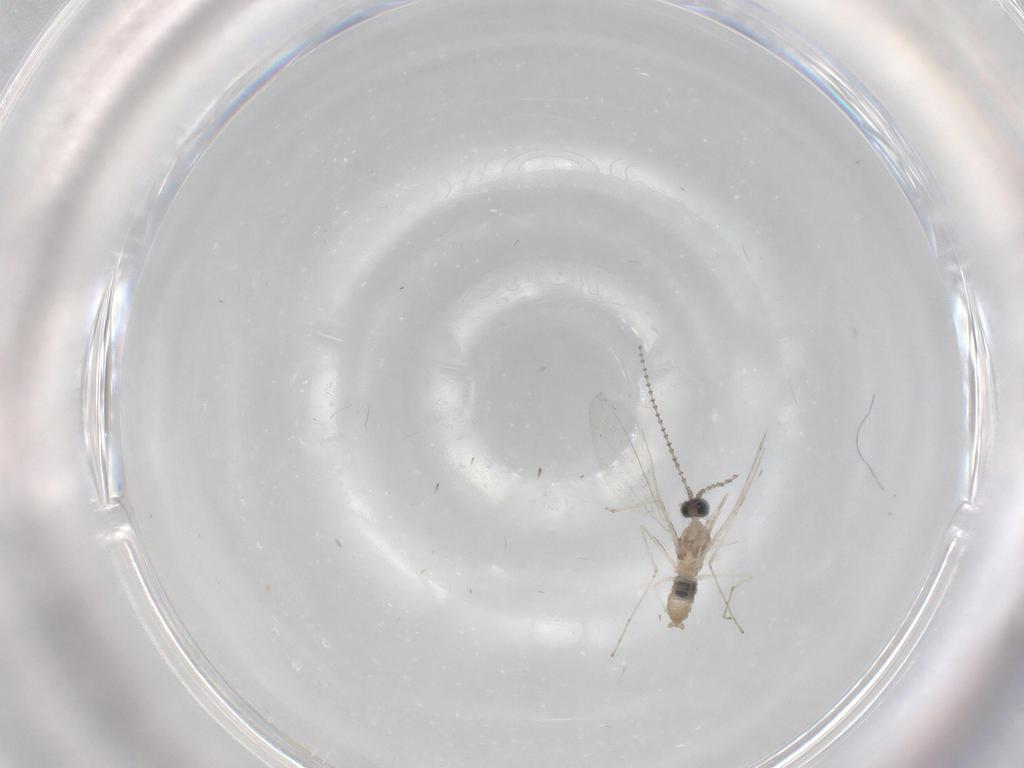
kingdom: Animalia
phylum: Arthropoda
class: Insecta
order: Diptera
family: Cecidomyiidae
